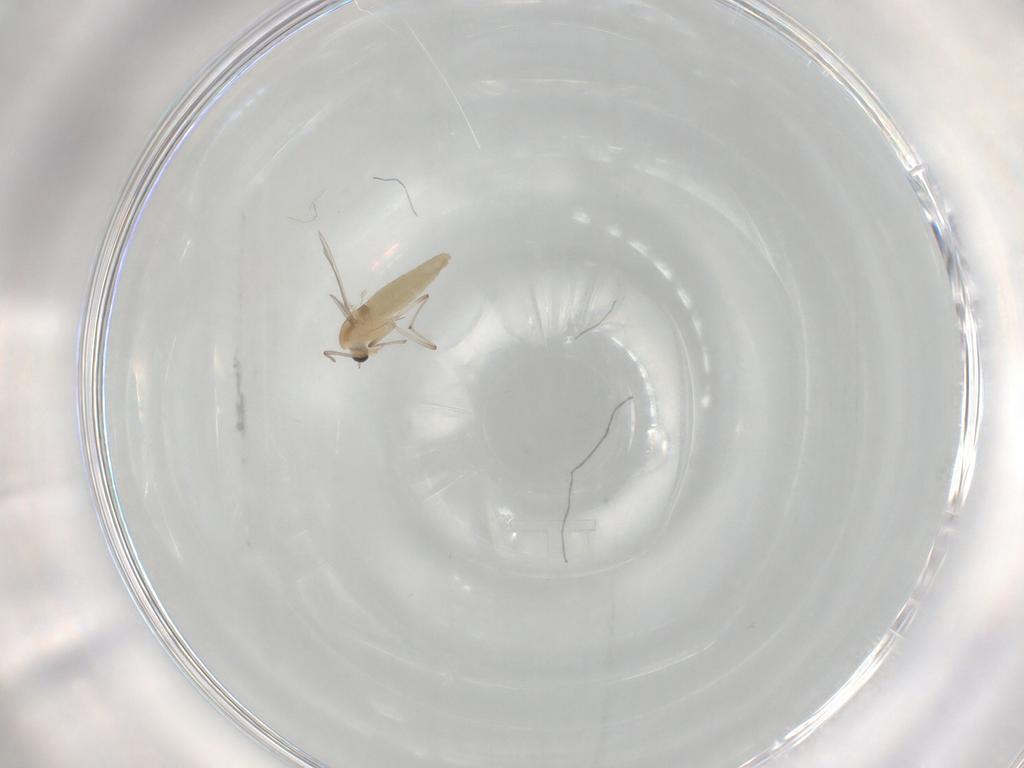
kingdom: Animalia
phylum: Arthropoda
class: Insecta
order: Diptera
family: Chironomidae
